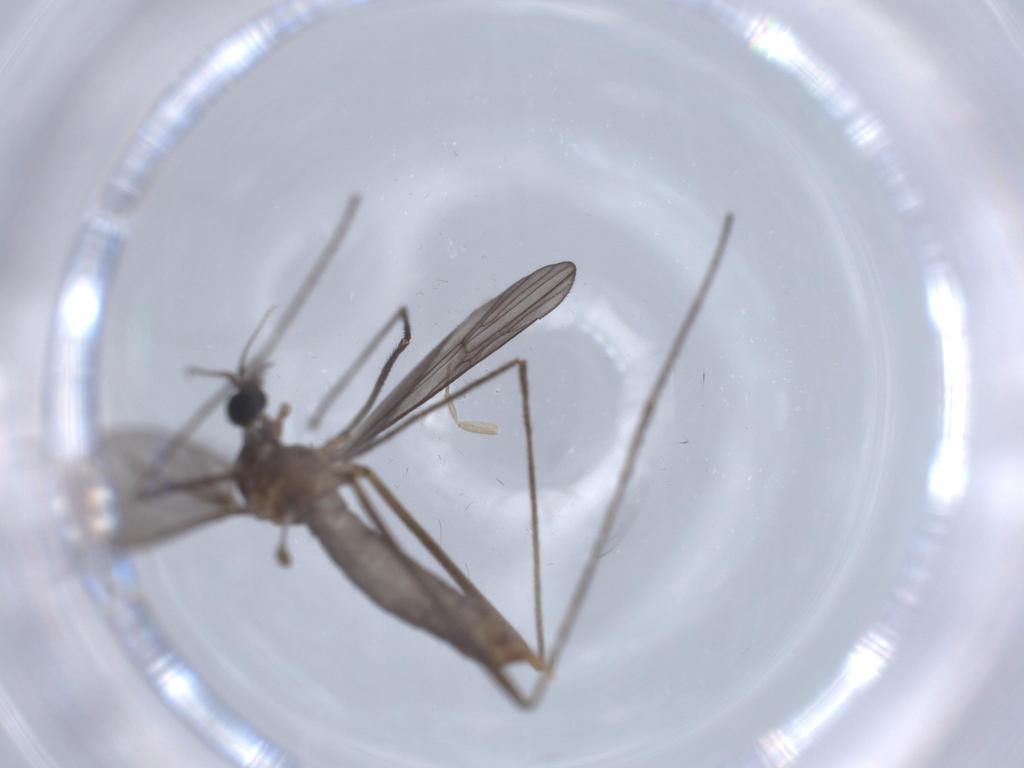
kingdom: Animalia
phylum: Arthropoda
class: Insecta
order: Diptera
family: Limoniidae
